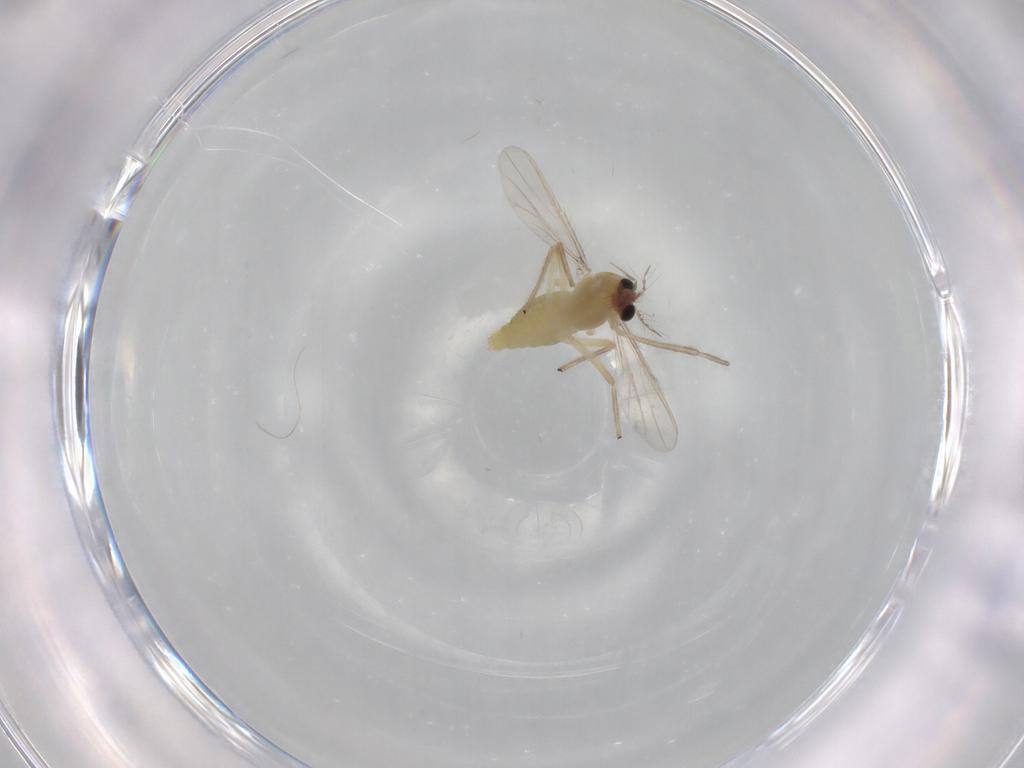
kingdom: Animalia
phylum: Arthropoda
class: Insecta
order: Diptera
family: Chironomidae
